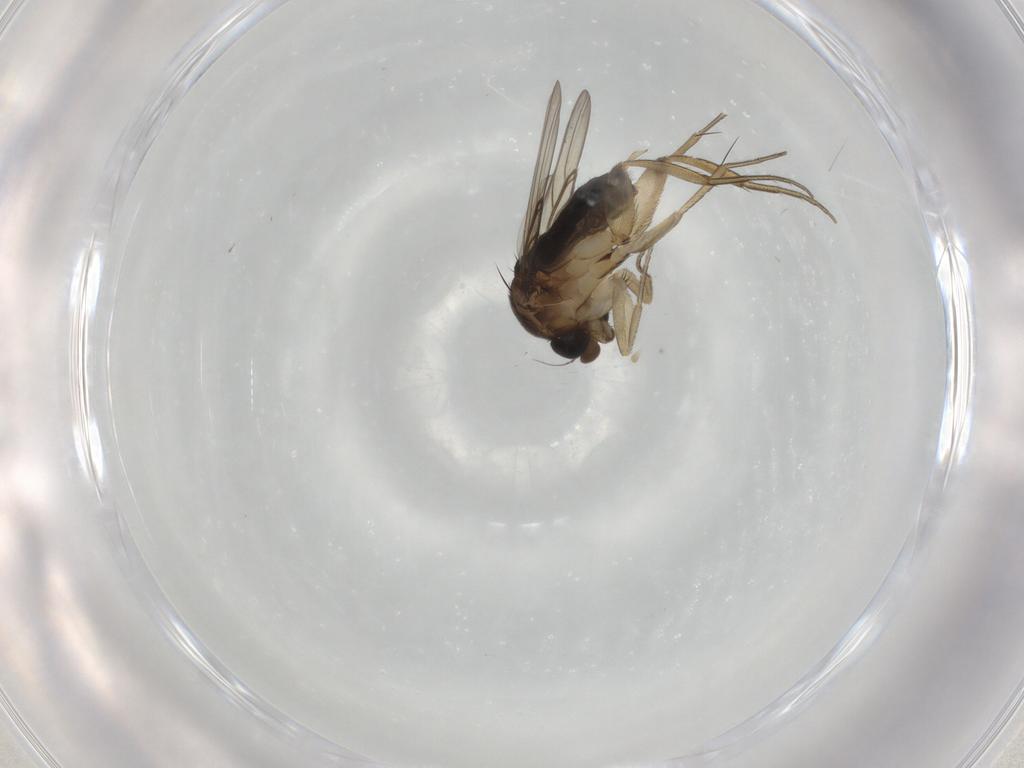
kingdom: Animalia
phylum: Arthropoda
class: Insecta
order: Diptera
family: Phoridae
